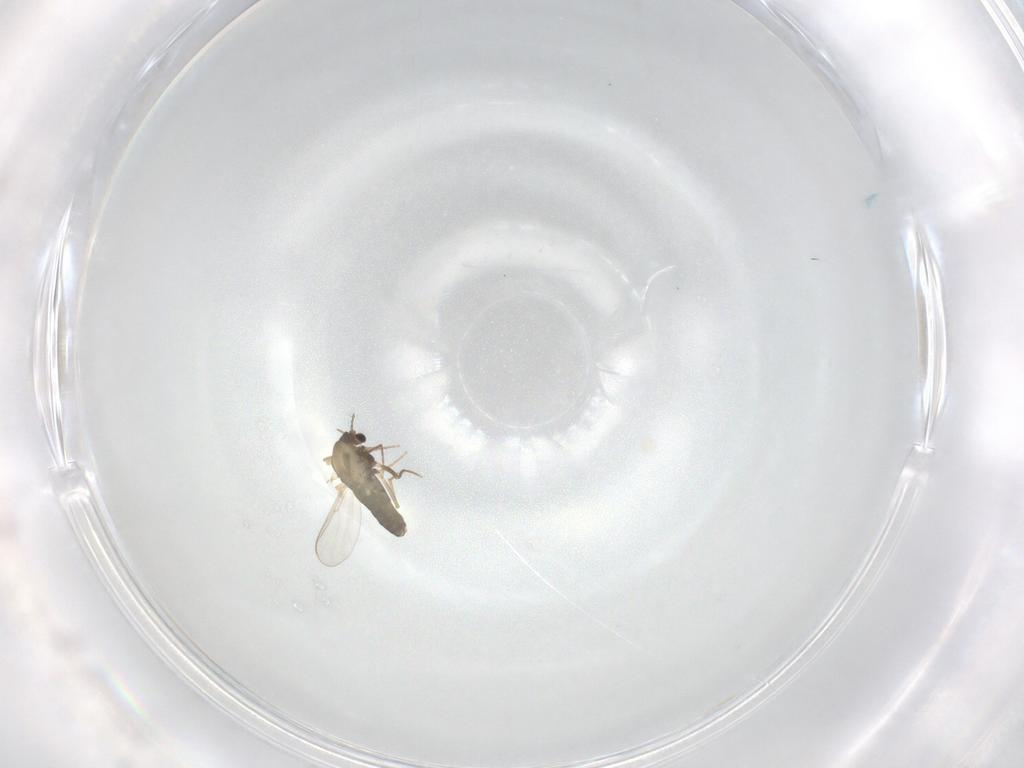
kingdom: Animalia
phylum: Arthropoda
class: Insecta
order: Diptera
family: Chironomidae
